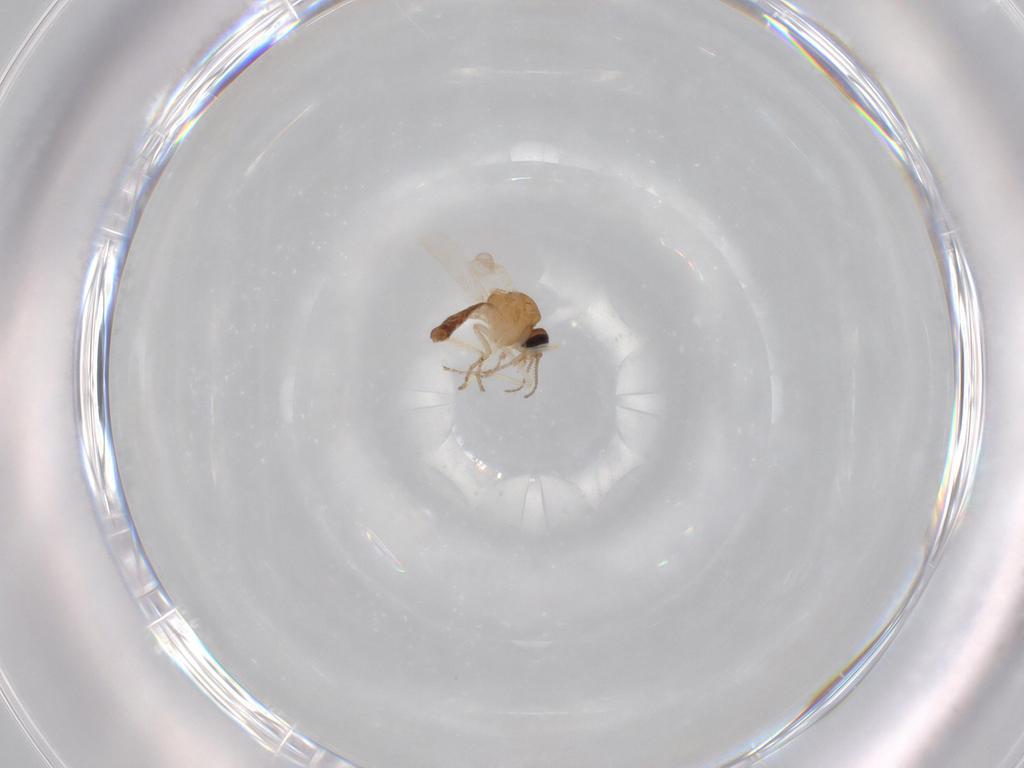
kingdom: Animalia
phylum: Arthropoda
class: Insecta
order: Diptera
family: Ceratopogonidae
